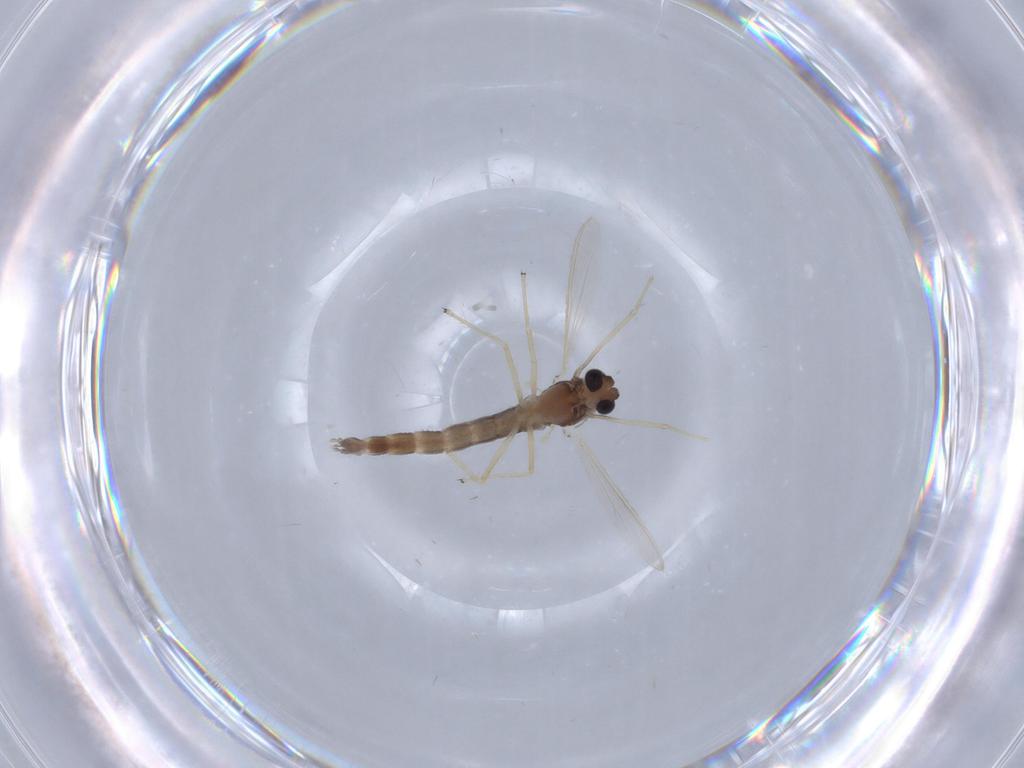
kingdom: Animalia
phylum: Arthropoda
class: Insecta
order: Diptera
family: Chironomidae
